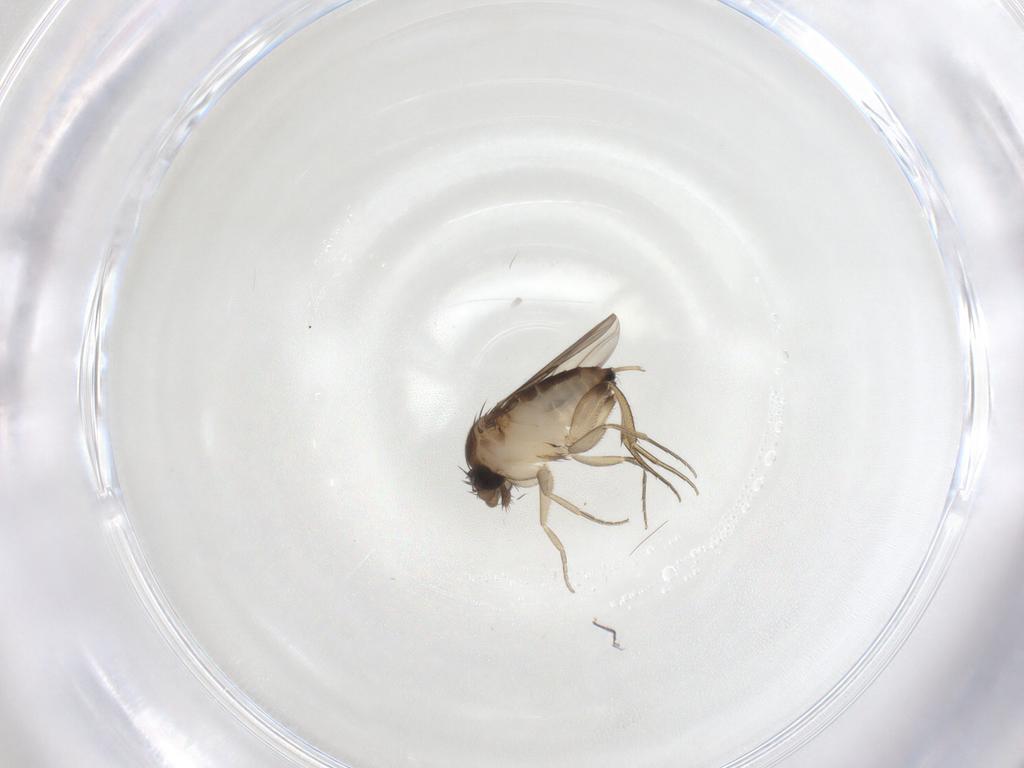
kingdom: Animalia
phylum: Arthropoda
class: Insecta
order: Diptera
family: Phoridae
